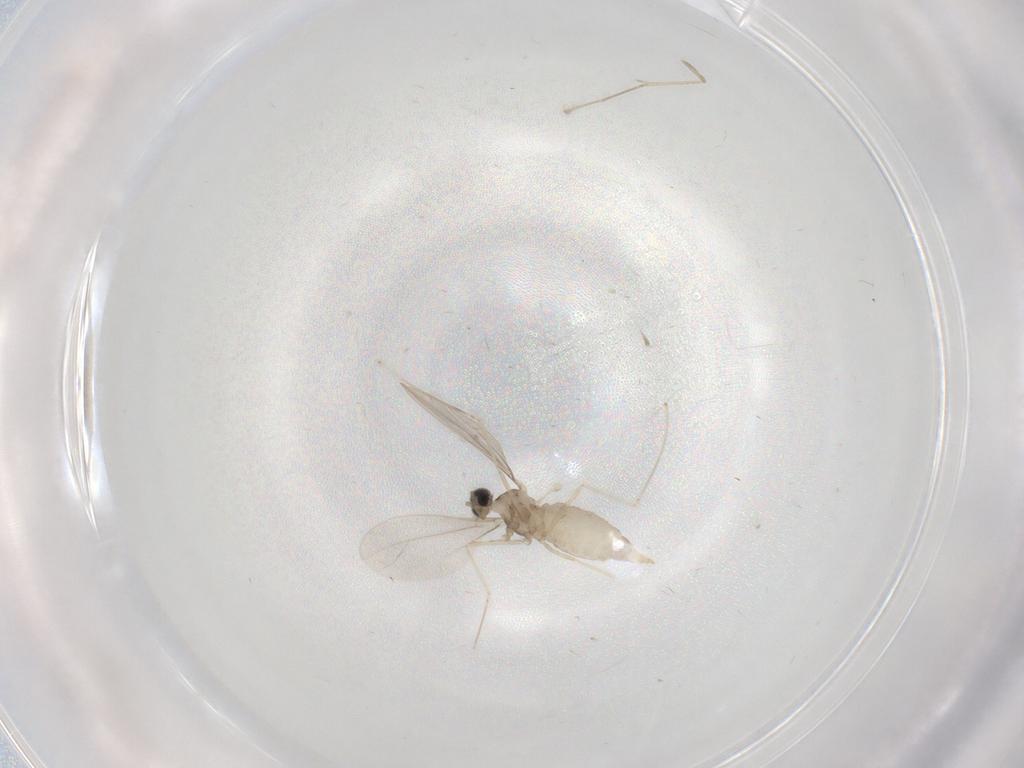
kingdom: Animalia
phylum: Arthropoda
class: Insecta
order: Diptera
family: Cecidomyiidae
